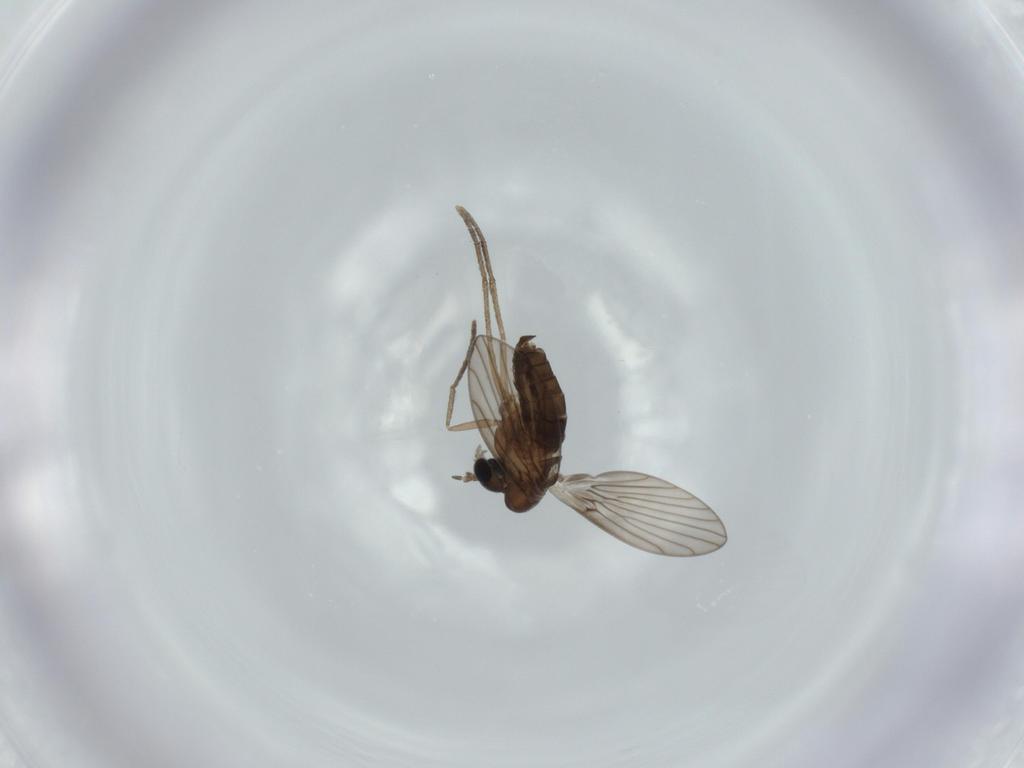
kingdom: Animalia
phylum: Arthropoda
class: Insecta
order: Diptera
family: Psychodidae
